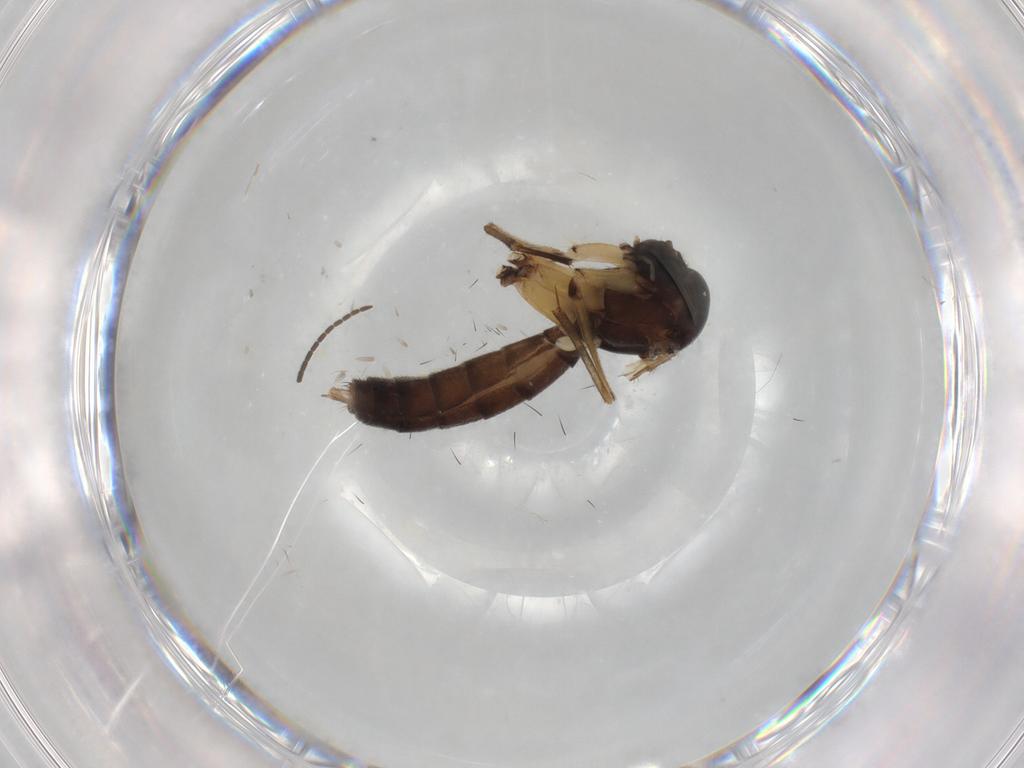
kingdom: Animalia
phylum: Arthropoda
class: Insecta
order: Diptera
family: Mycetophilidae
